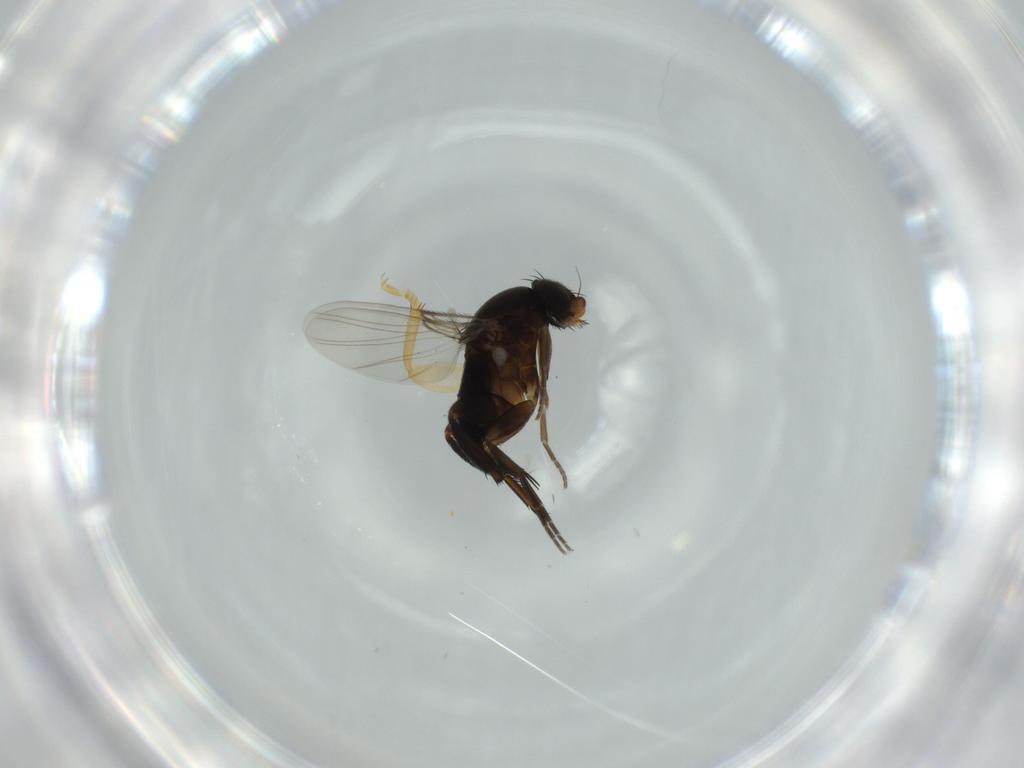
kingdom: Animalia
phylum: Arthropoda
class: Insecta
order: Diptera
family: Phoridae
